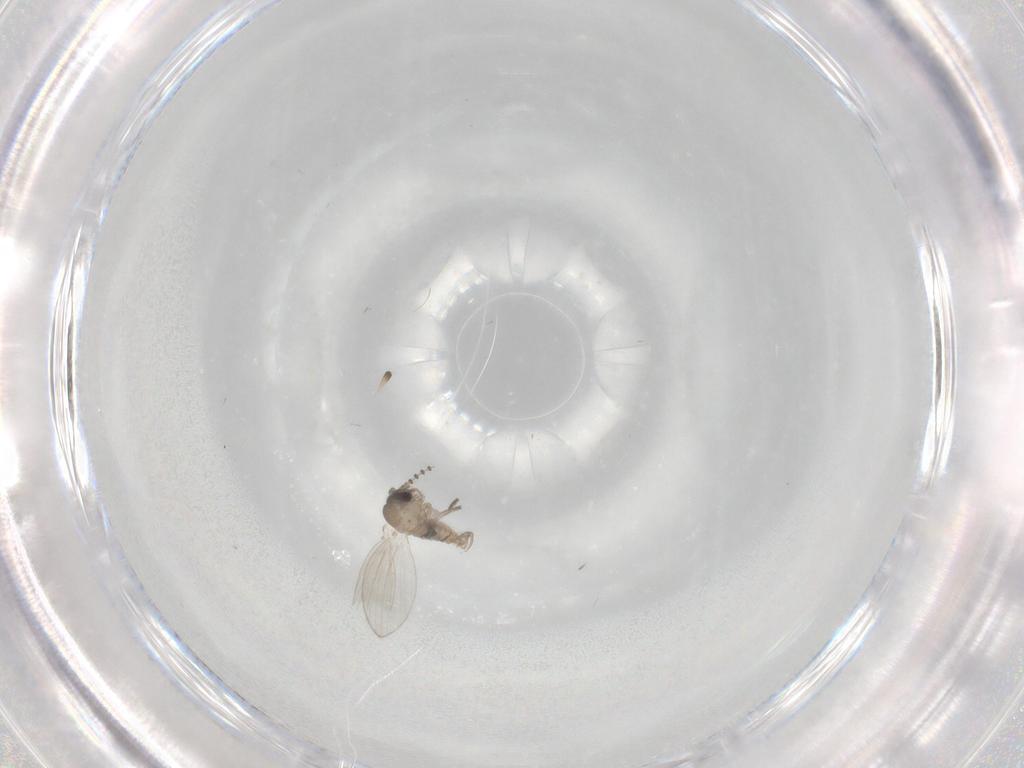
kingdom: Animalia
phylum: Arthropoda
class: Insecta
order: Diptera
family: Psychodidae
